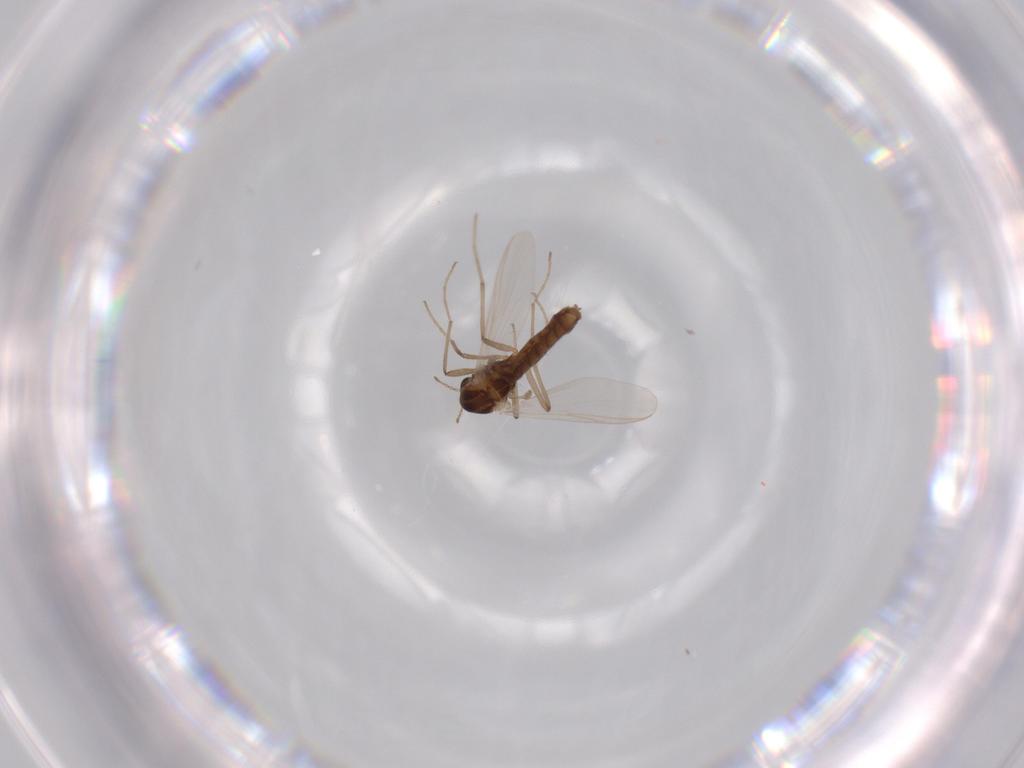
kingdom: Animalia
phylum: Arthropoda
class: Insecta
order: Diptera
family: Chironomidae
